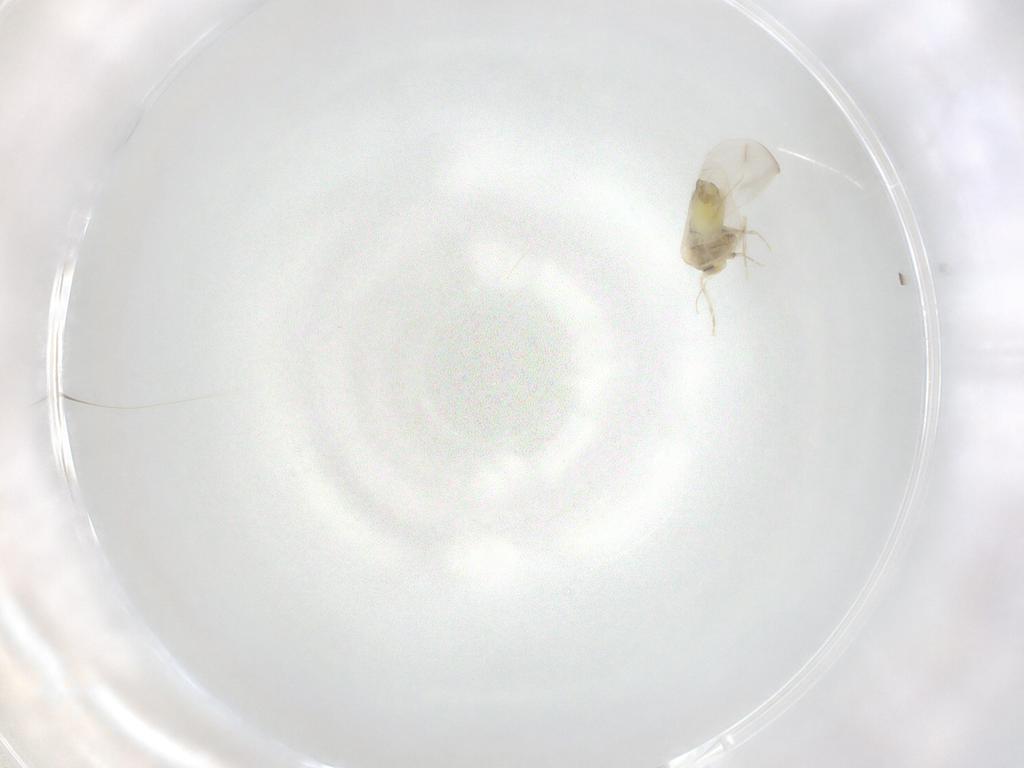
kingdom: Animalia
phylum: Arthropoda
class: Insecta
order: Hemiptera
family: Aleyrodidae
